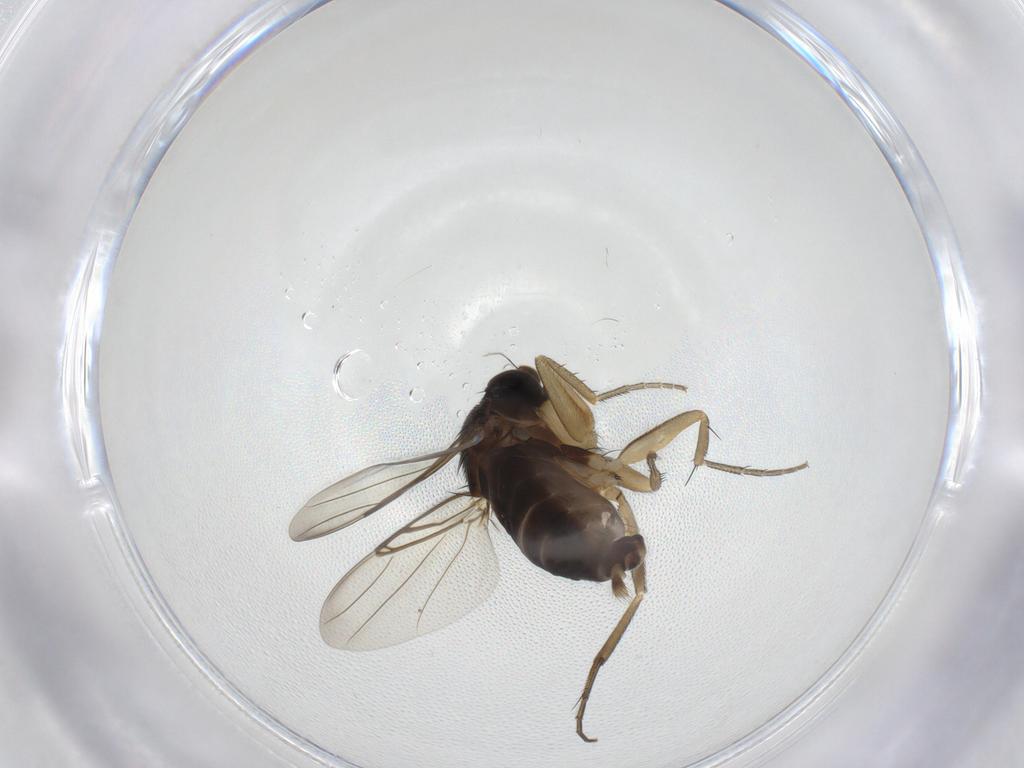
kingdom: Animalia
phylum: Arthropoda
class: Insecta
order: Diptera
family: Phoridae
